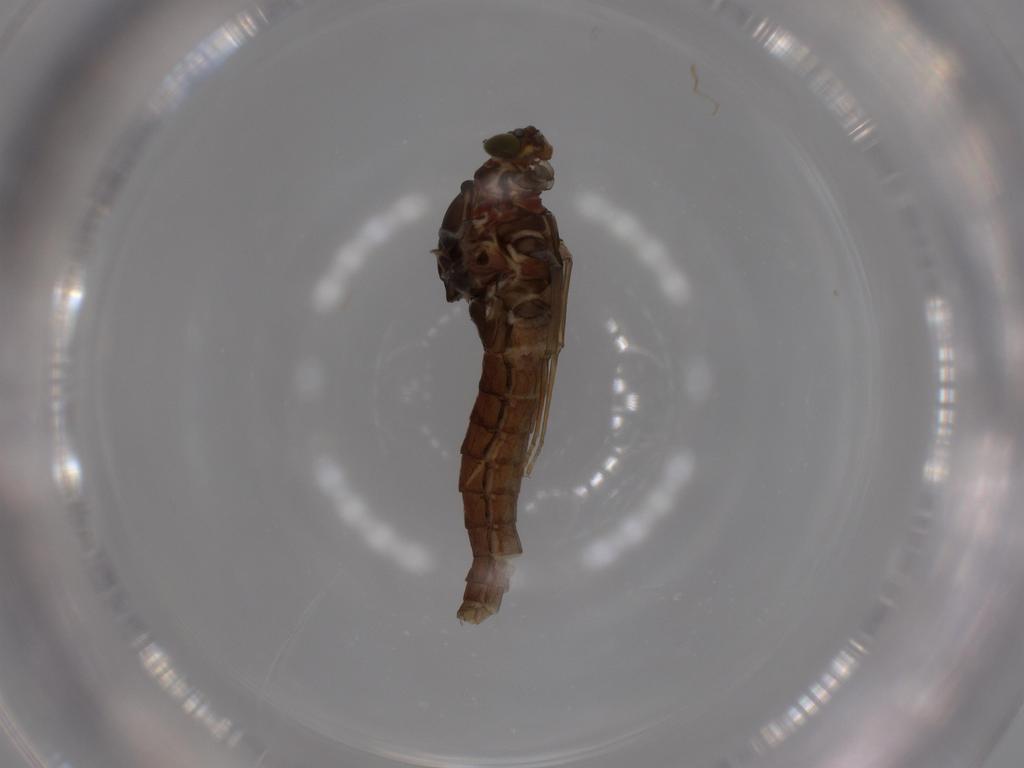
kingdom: Animalia
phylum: Arthropoda
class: Insecta
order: Ephemeroptera
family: Baetidae
